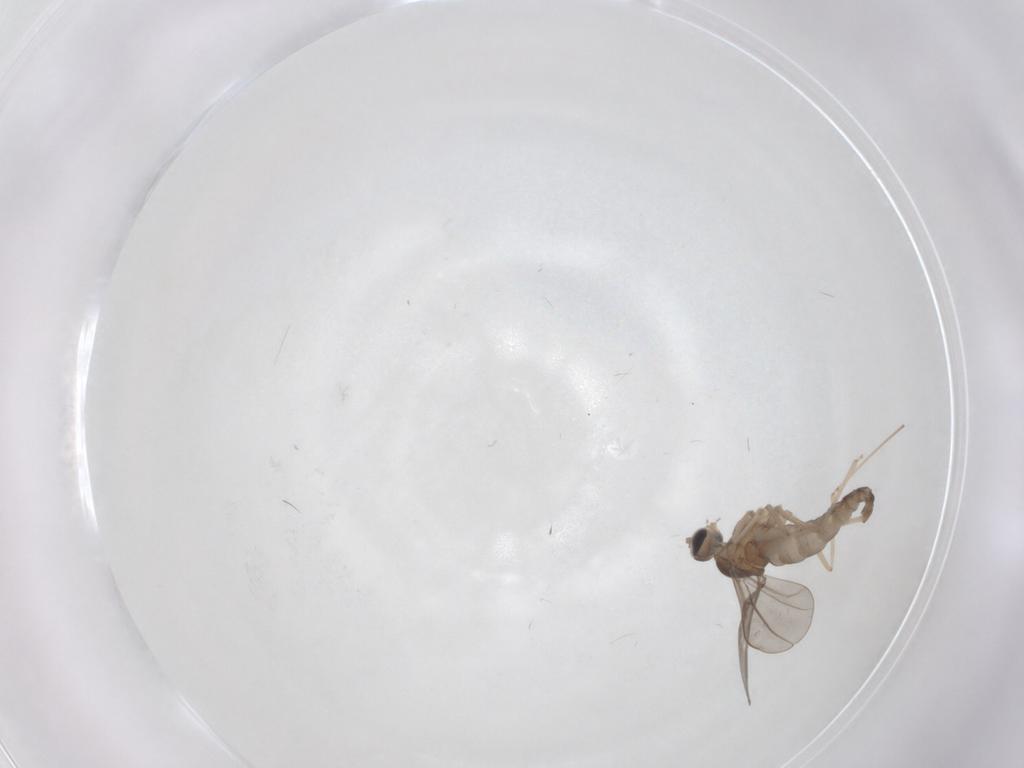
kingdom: Animalia
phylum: Arthropoda
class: Insecta
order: Diptera
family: Cecidomyiidae
